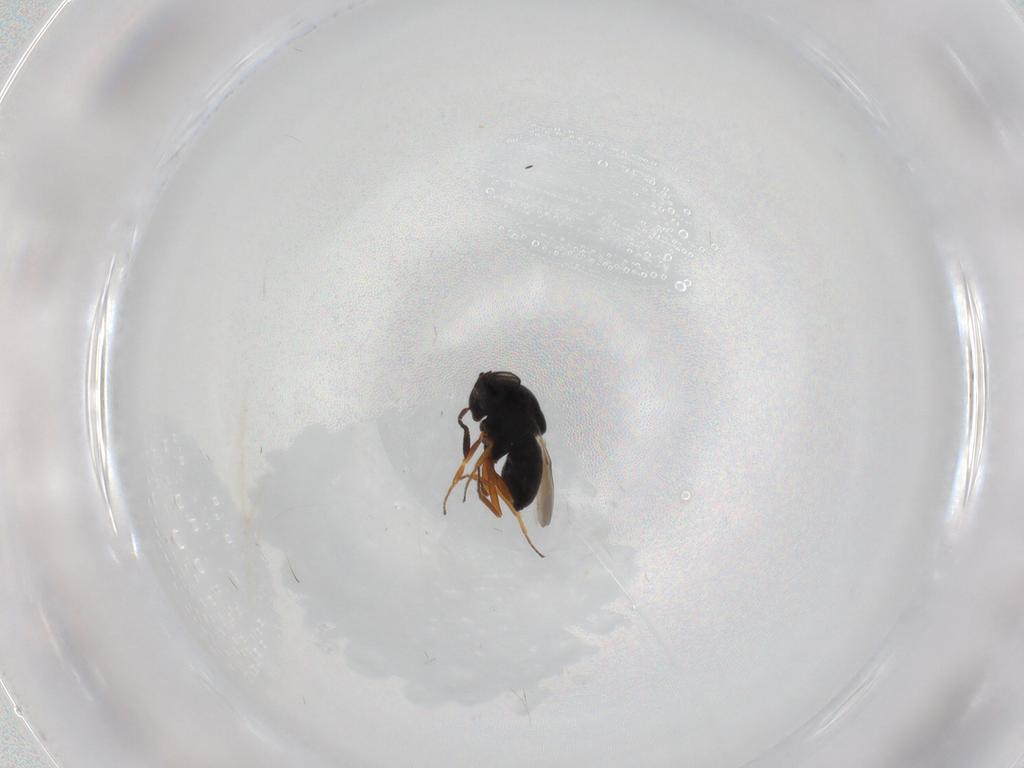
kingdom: Animalia
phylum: Arthropoda
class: Insecta
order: Hymenoptera
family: Scelionidae
